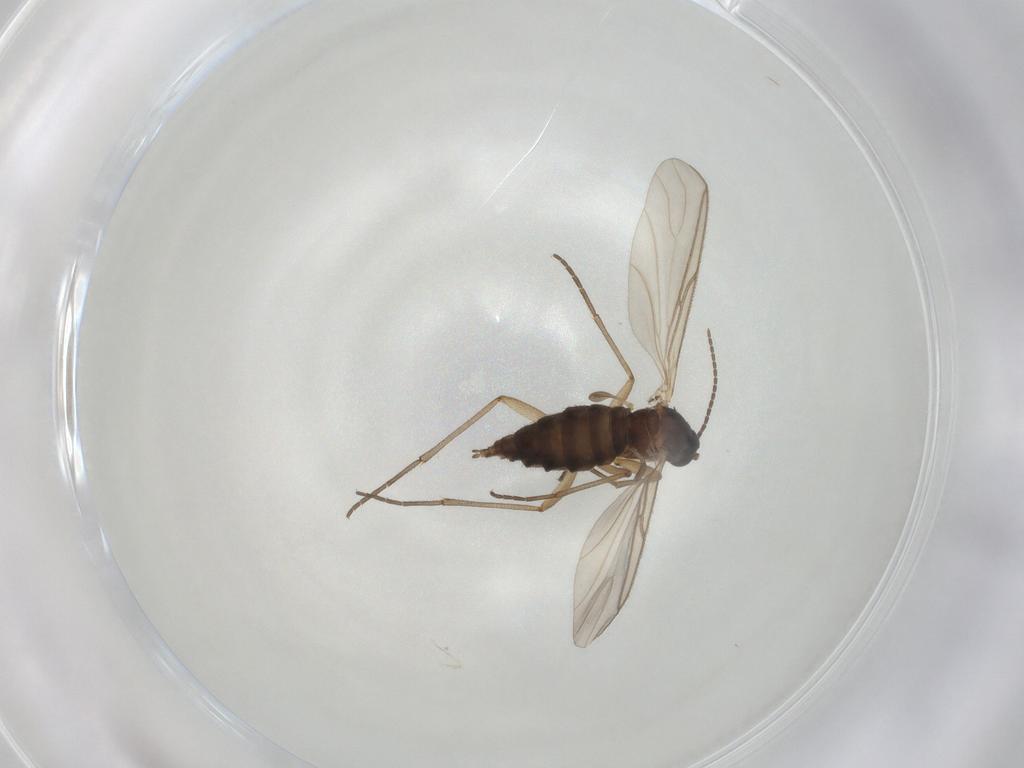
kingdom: Animalia
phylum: Arthropoda
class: Insecta
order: Diptera
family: Sciaridae
